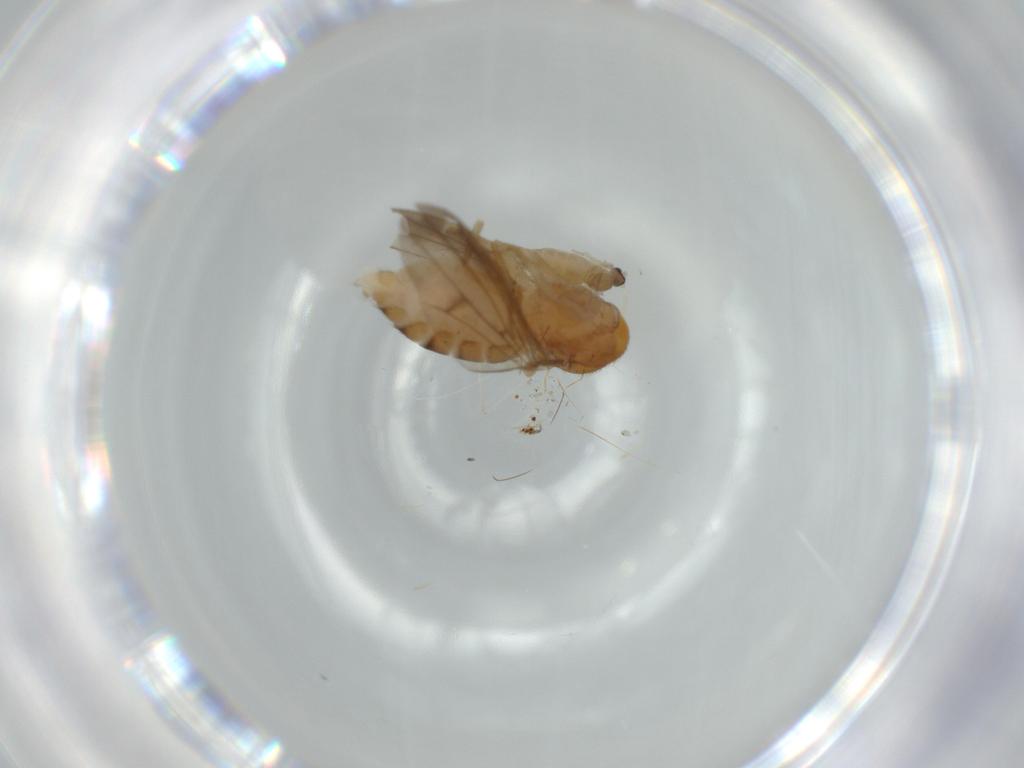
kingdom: Animalia
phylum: Arthropoda
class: Insecta
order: Diptera
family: Drosophilidae
